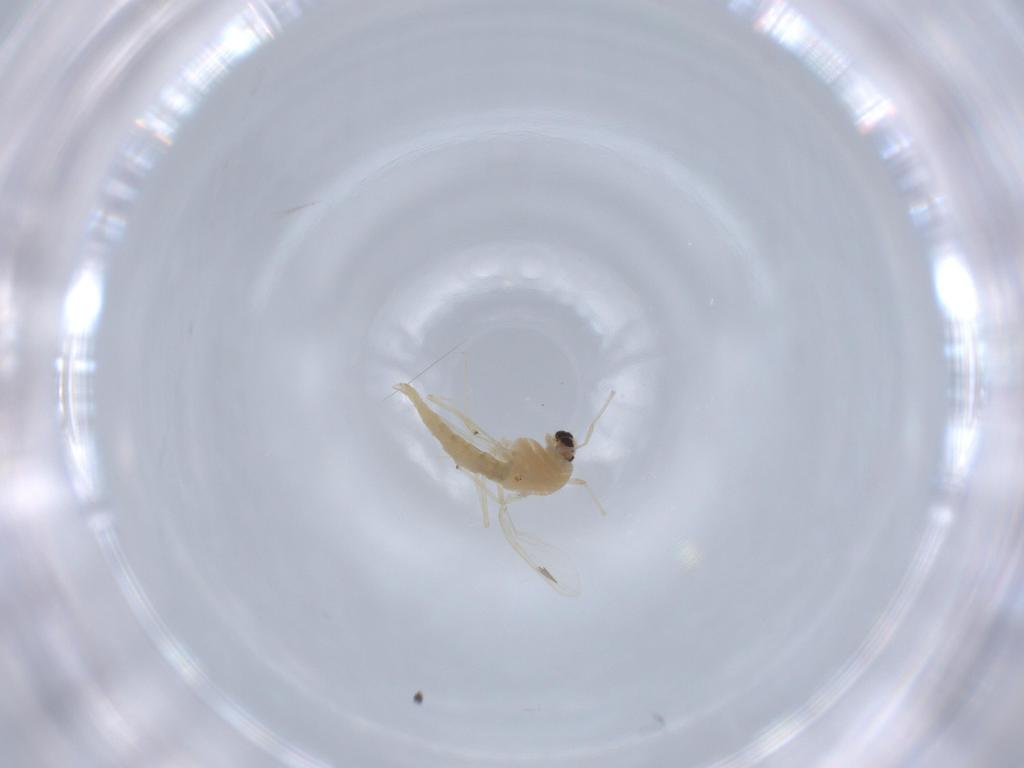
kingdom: Animalia
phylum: Arthropoda
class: Insecta
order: Diptera
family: Chironomidae
